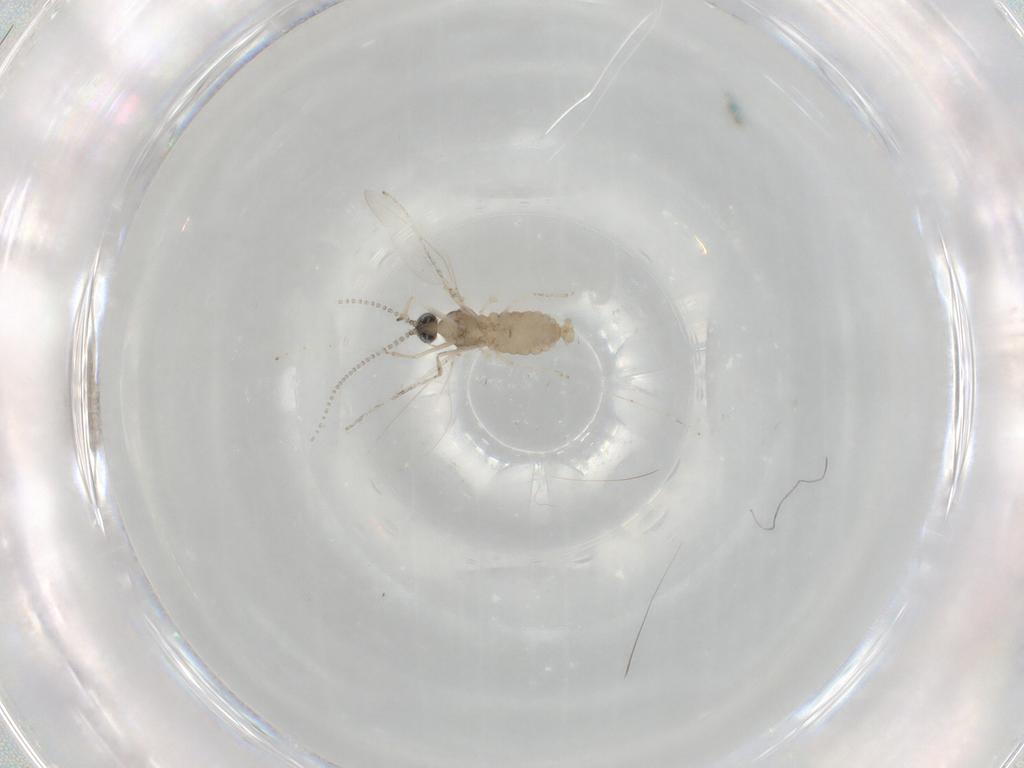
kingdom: Animalia
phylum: Arthropoda
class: Insecta
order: Diptera
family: Cecidomyiidae
